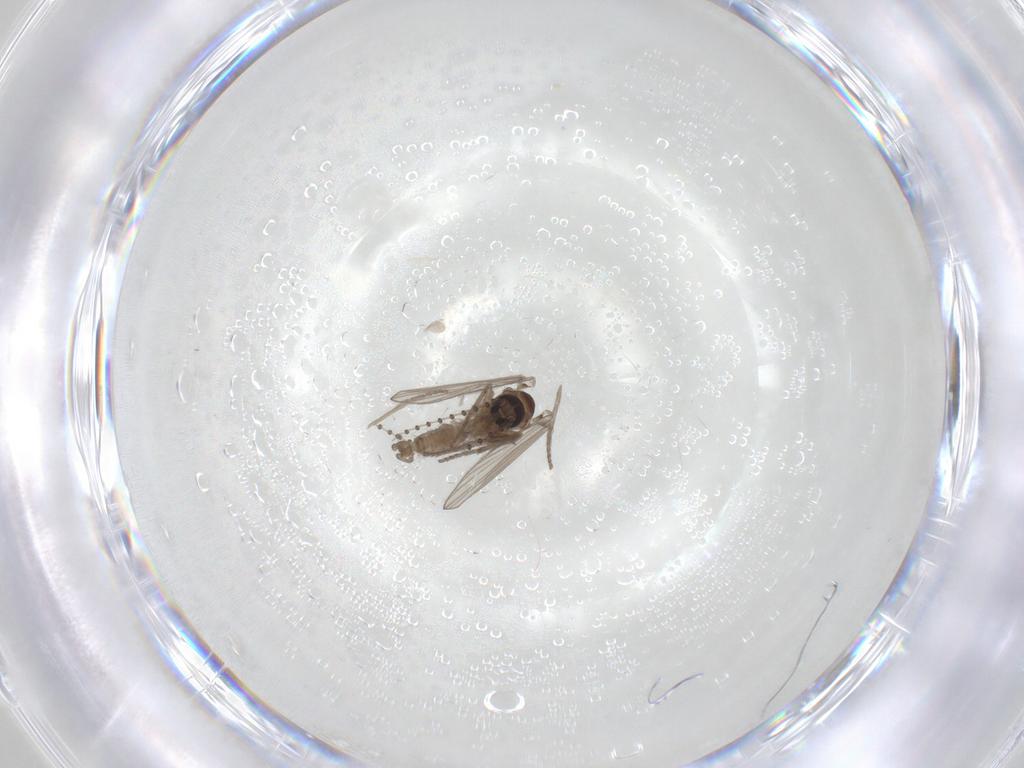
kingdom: Animalia
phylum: Arthropoda
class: Insecta
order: Diptera
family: Psychodidae
